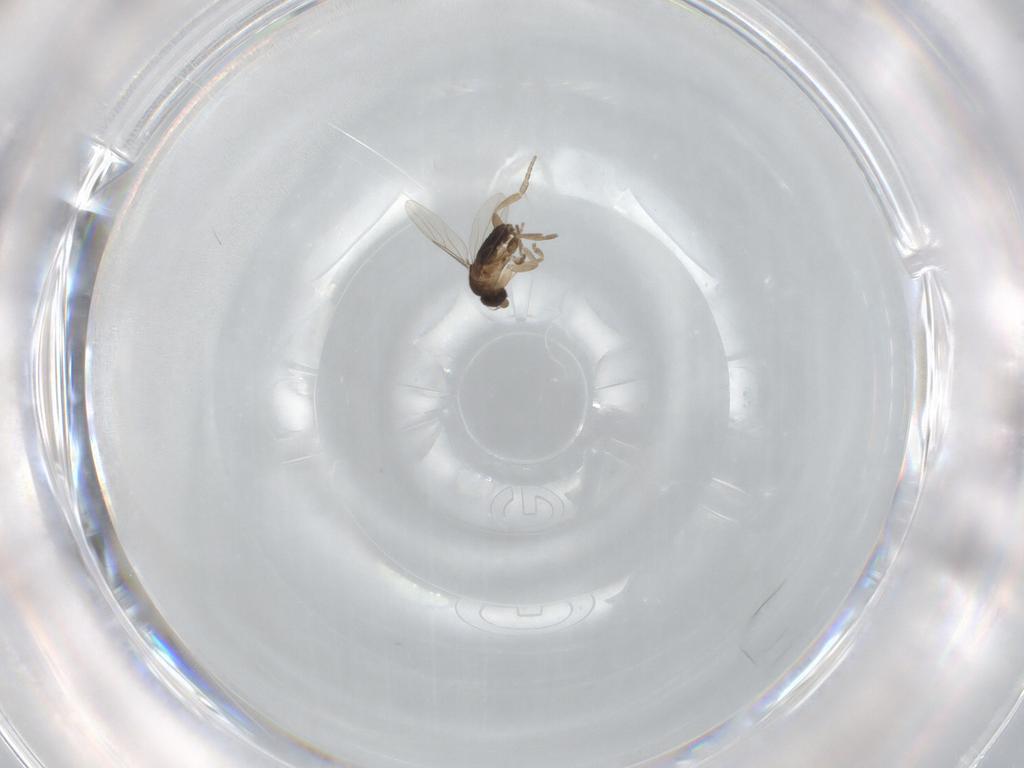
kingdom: Animalia
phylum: Arthropoda
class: Insecta
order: Diptera
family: Phoridae
